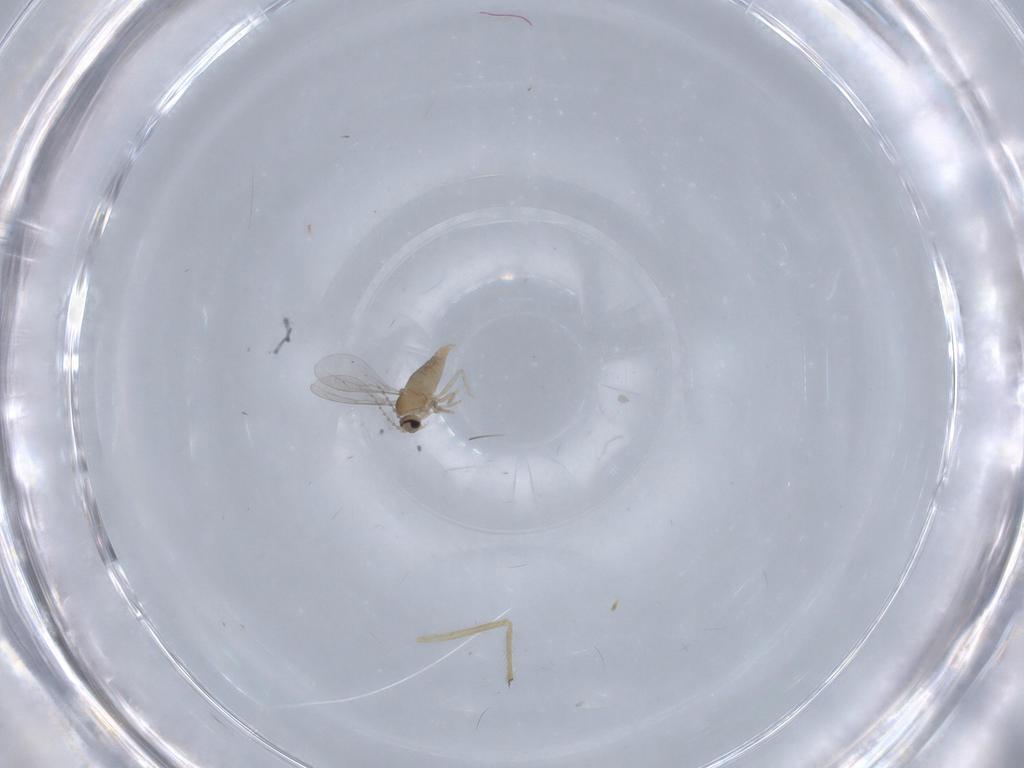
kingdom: Animalia
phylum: Arthropoda
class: Insecta
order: Diptera
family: Chironomidae
